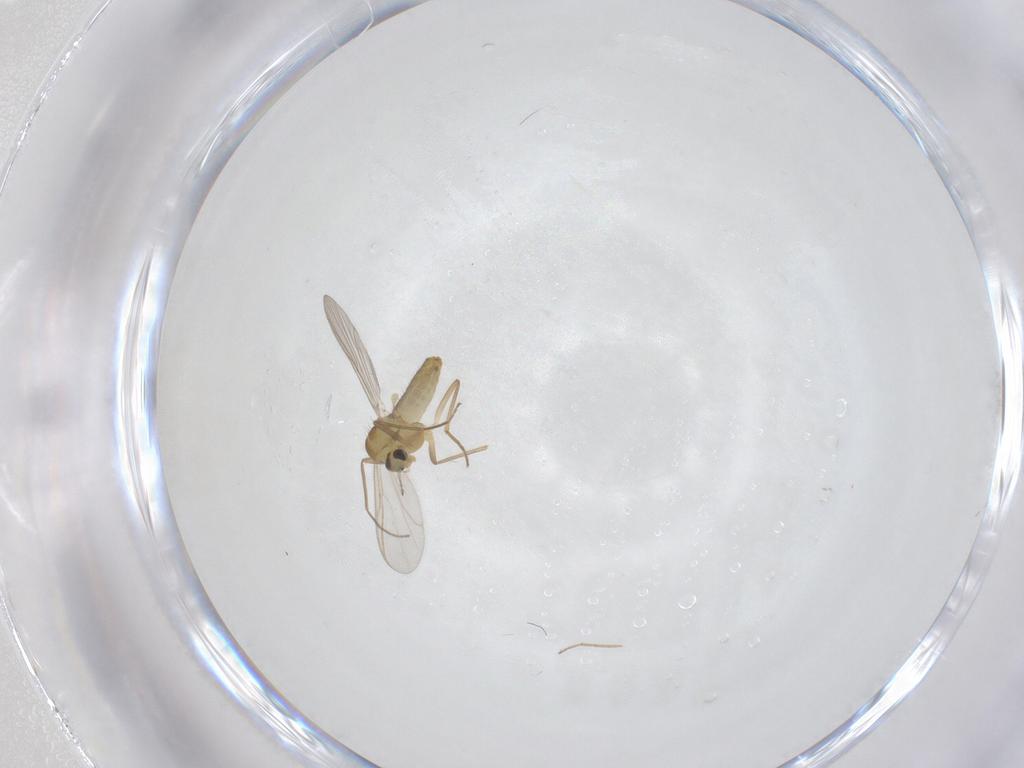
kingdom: Animalia
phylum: Arthropoda
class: Insecta
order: Diptera
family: Chironomidae
